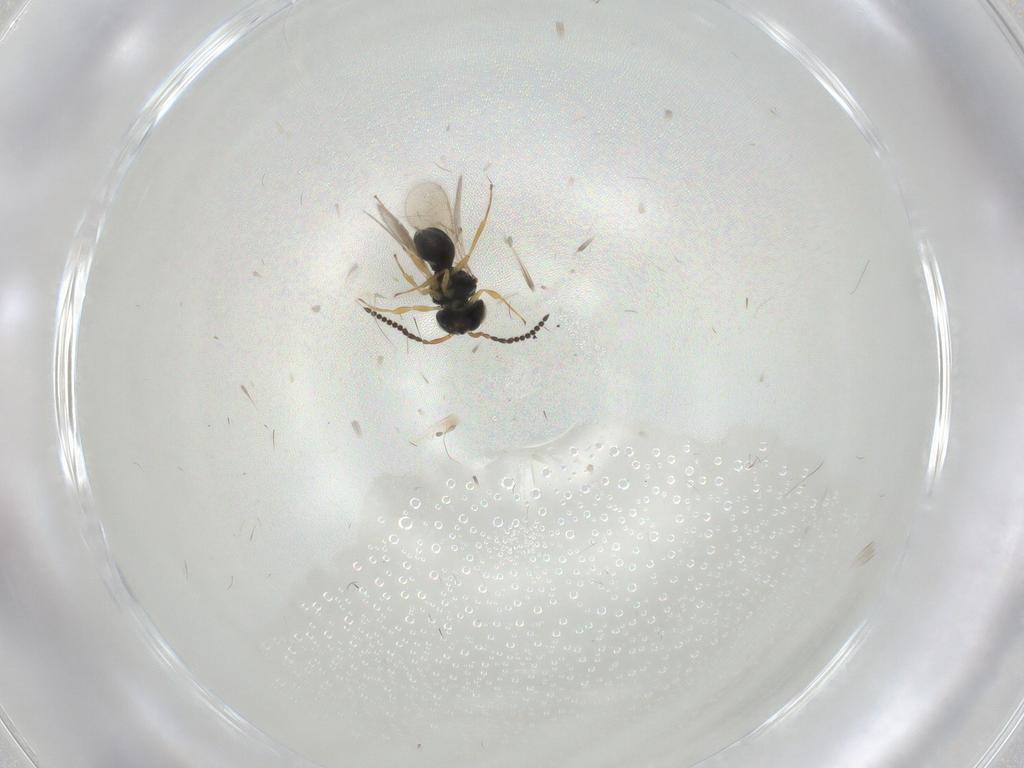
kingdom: Animalia
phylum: Arthropoda
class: Insecta
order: Hymenoptera
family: Scelionidae
